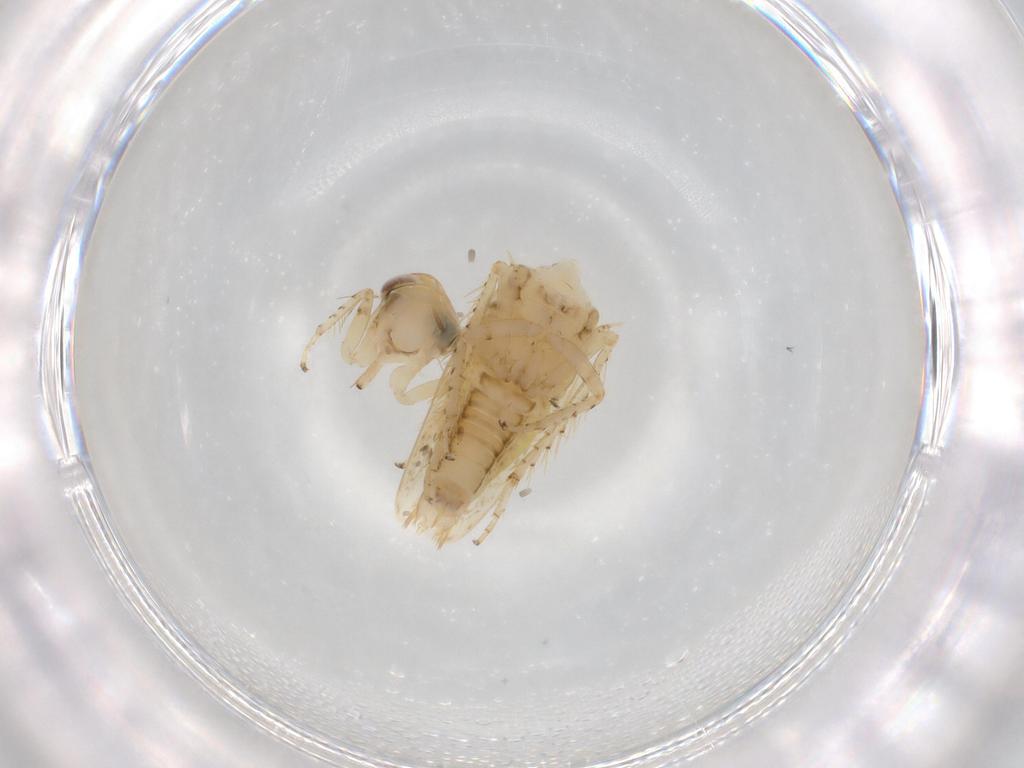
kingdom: Animalia
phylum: Arthropoda
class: Insecta
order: Hemiptera
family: Cicadellidae
